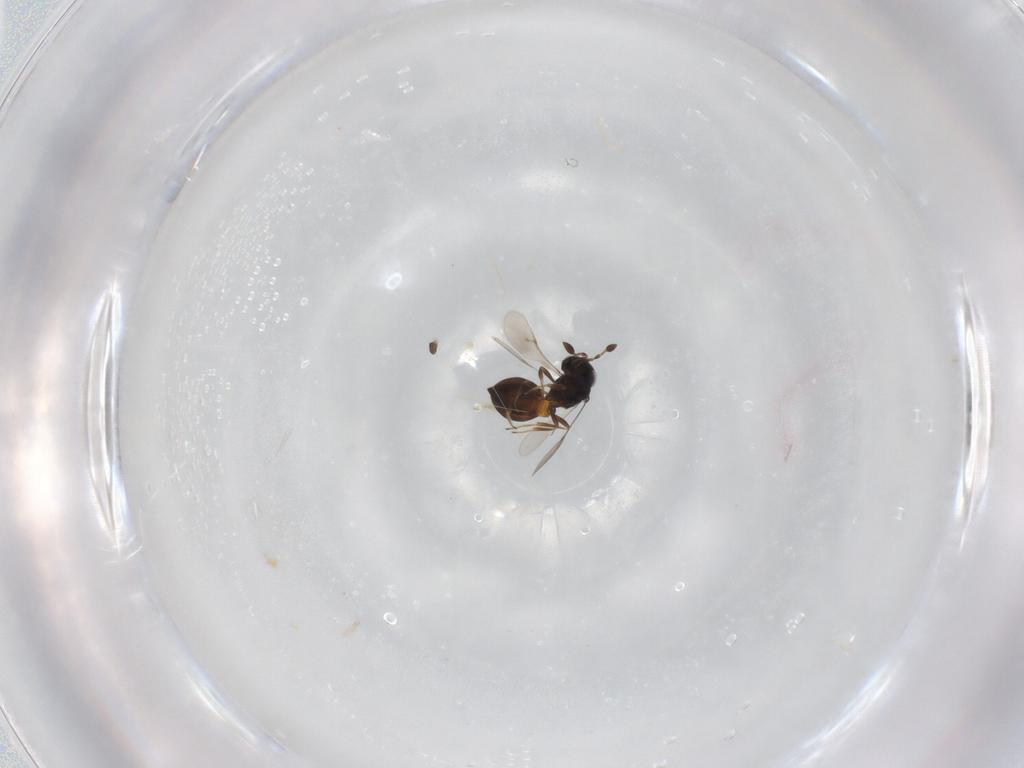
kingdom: Animalia
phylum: Arthropoda
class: Insecta
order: Hymenoptera
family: Scelionidae
